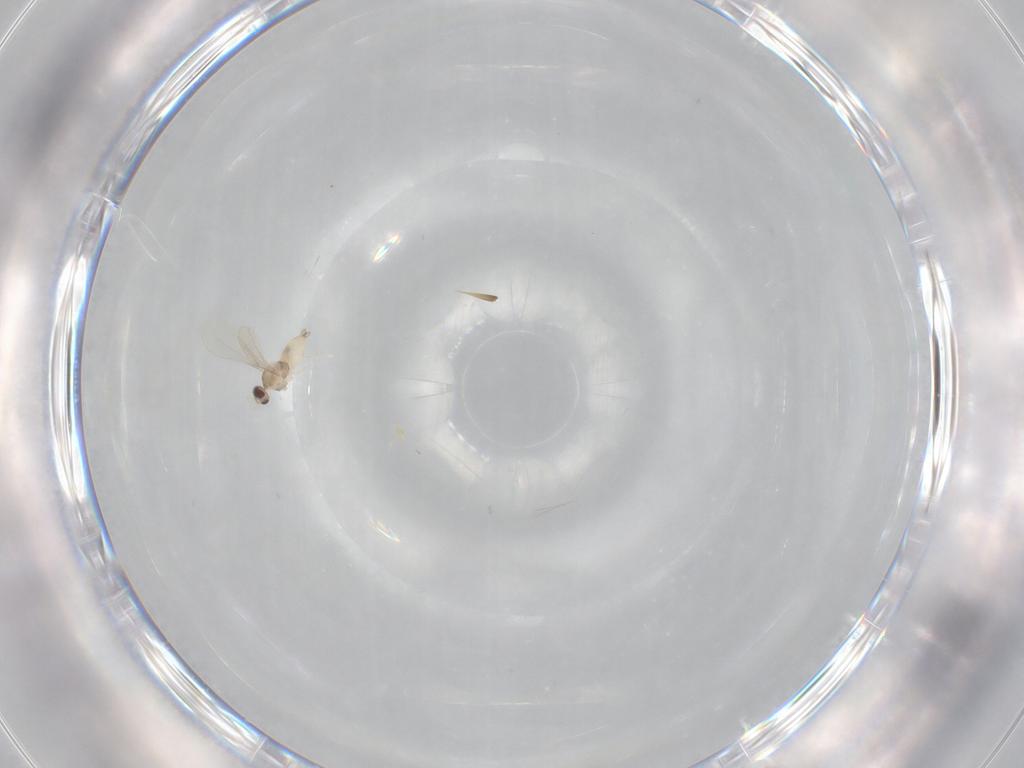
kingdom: Animalia
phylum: Arthropoda
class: Insecta
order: Diptera
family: Cecidomyiidae
